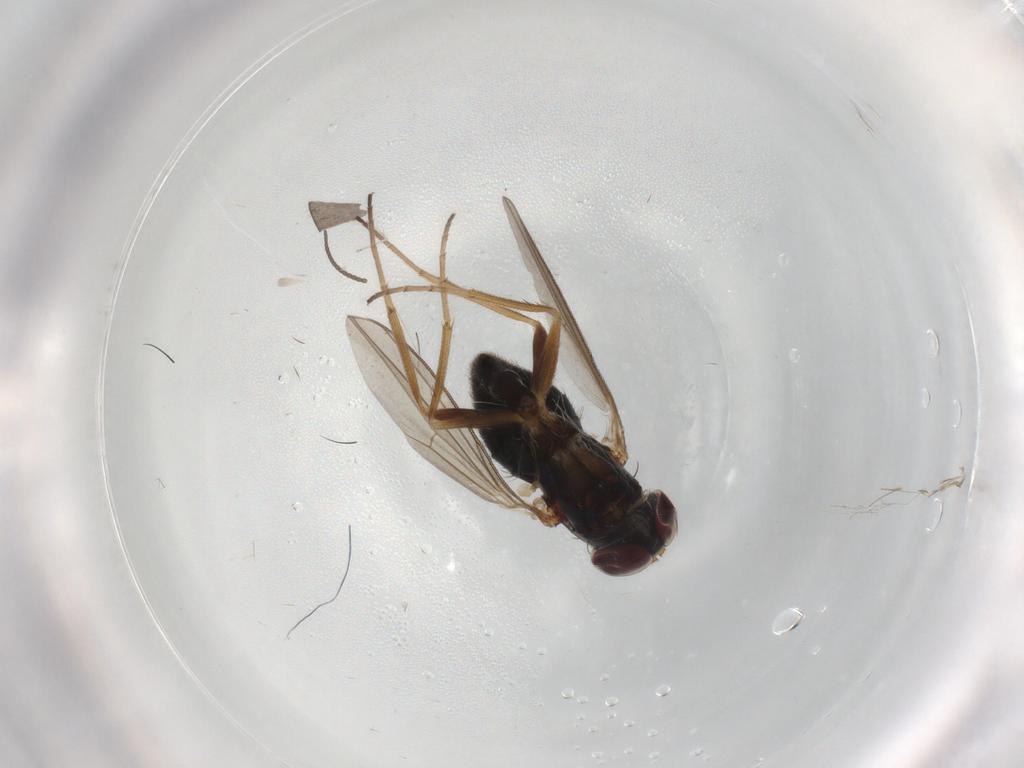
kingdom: Animalia
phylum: Arthropoda
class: Insecta
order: Diptera
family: Dolichopodidae
